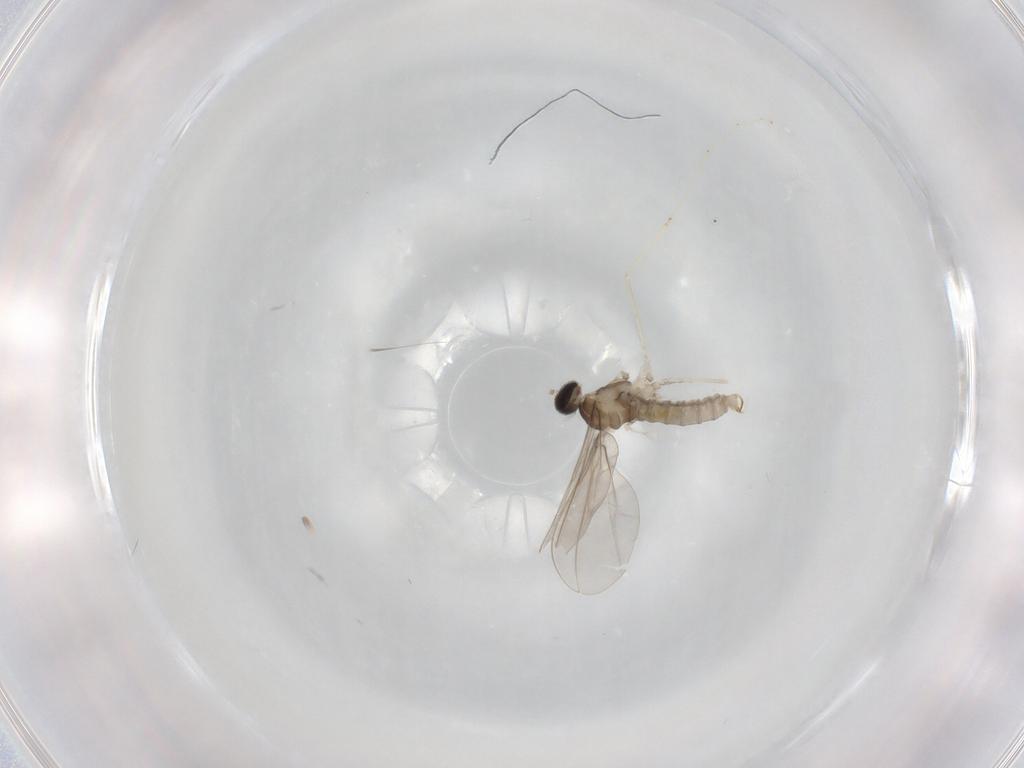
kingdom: Animalia
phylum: Arthropoda
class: Insecta
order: Diptera
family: Cecidomyiidae
